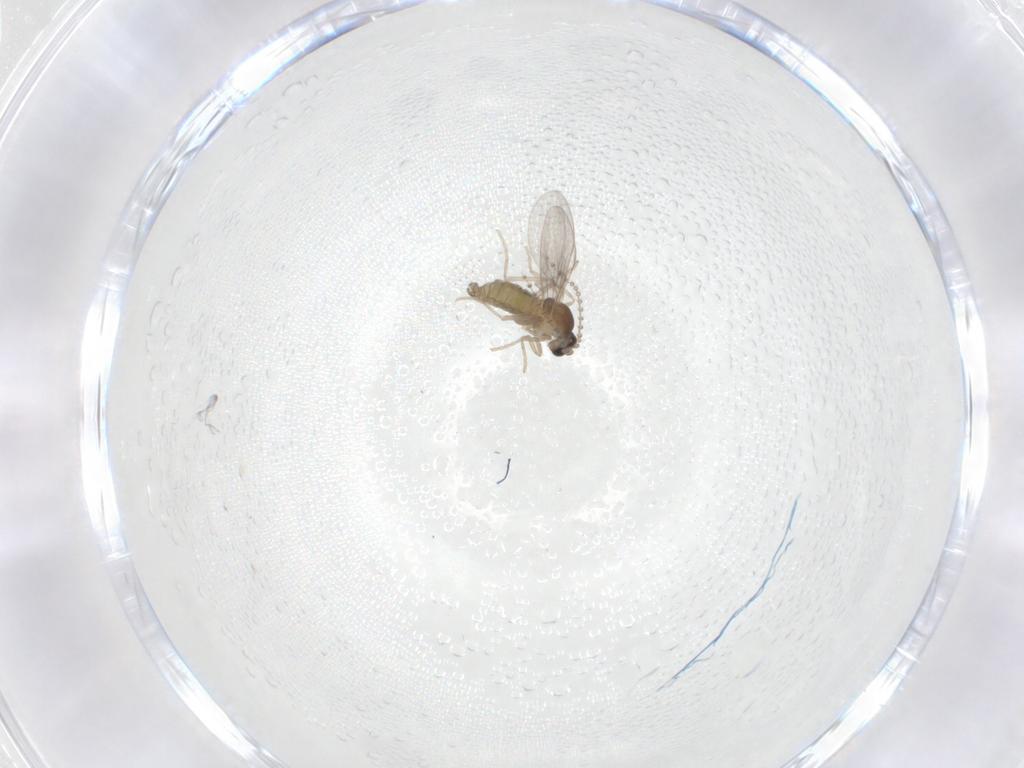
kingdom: Animalia
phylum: Arthropoda
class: Insecta
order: Diptera
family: Cecidomyiidae
